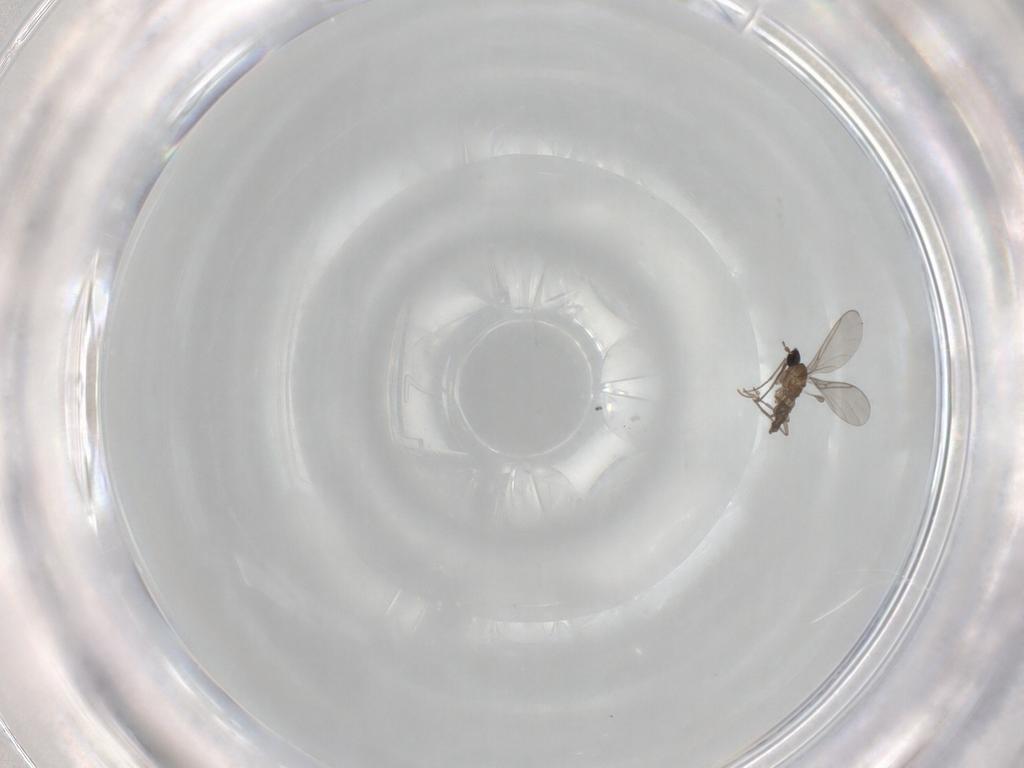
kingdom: Animalia
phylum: Arthropoda
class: Insecta
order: Diptera
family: Sciaridae
